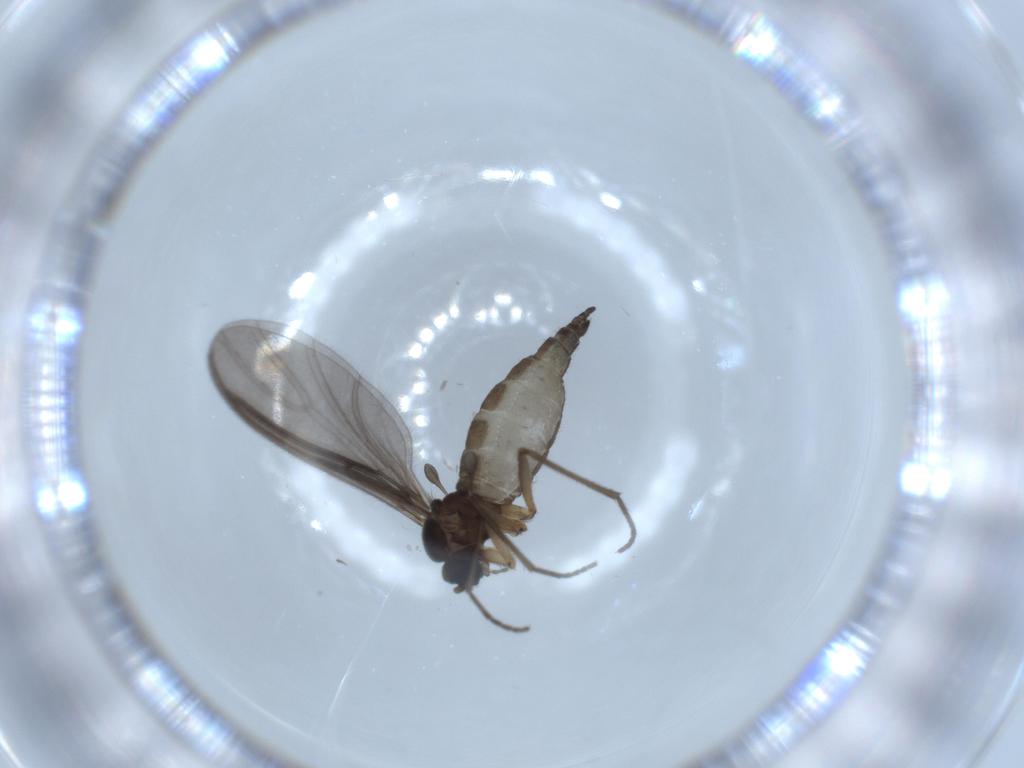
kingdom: Animalia
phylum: Arthropoda
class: Insecta
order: Diptera
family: Sciaridae
